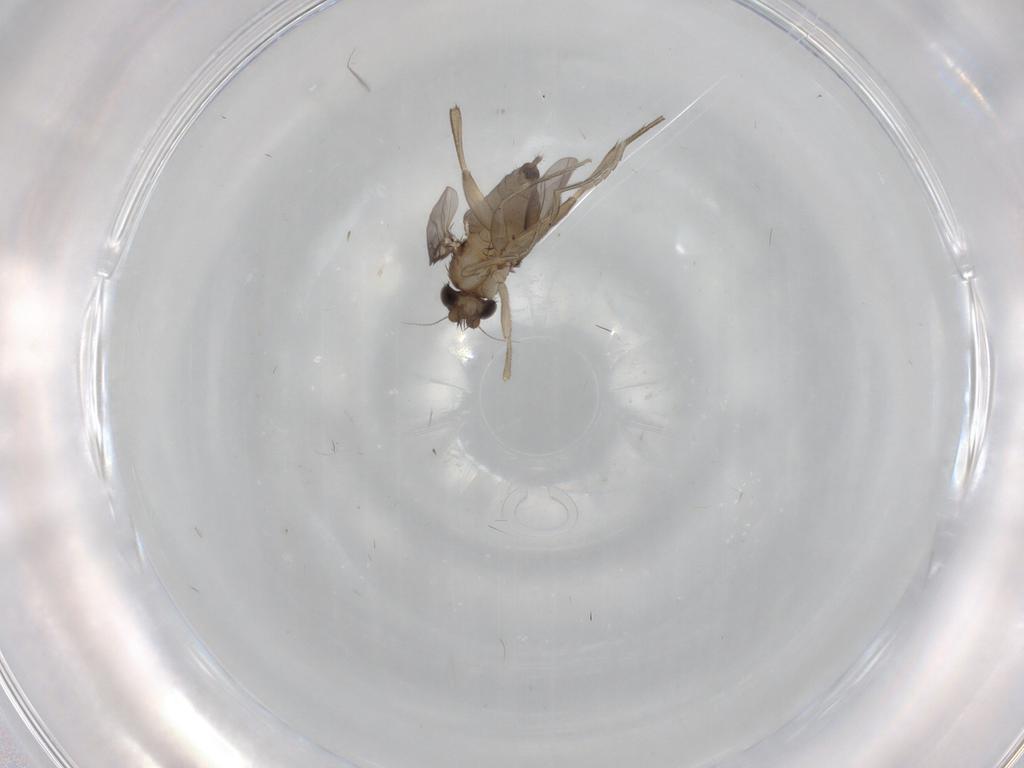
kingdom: Animalia
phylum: Arthropoda
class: Insecta
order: Diptera
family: Phoridae
